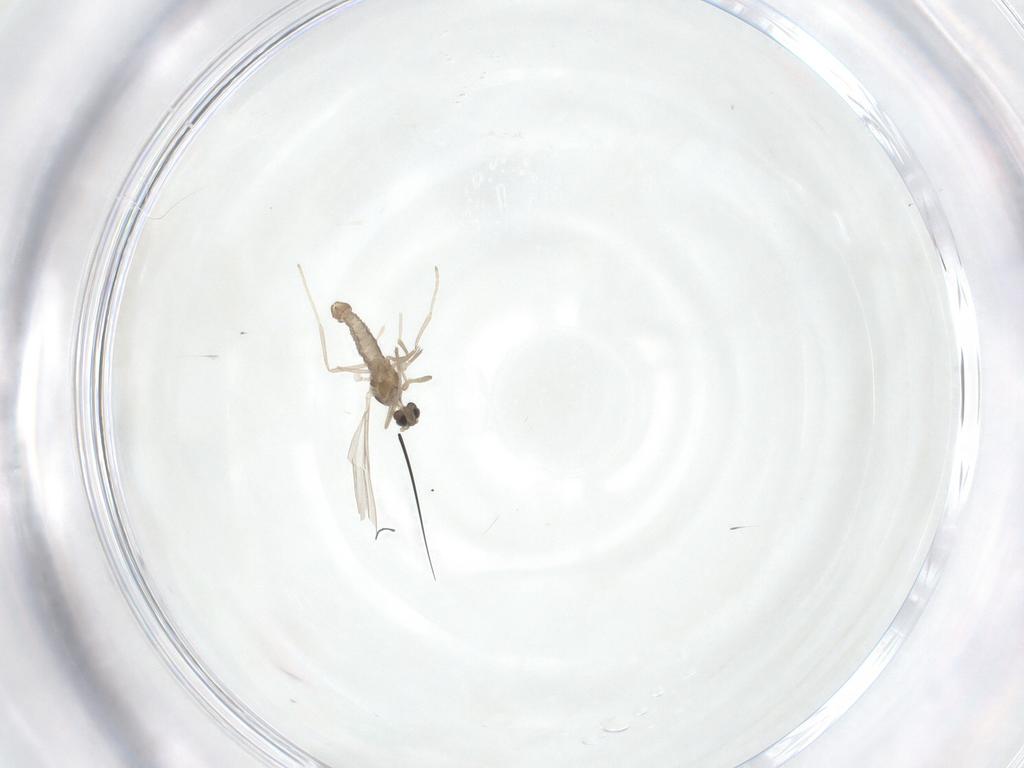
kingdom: Animalia
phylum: Arthropoda
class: Insecta
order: Diptera
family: Cecidomyiidae
